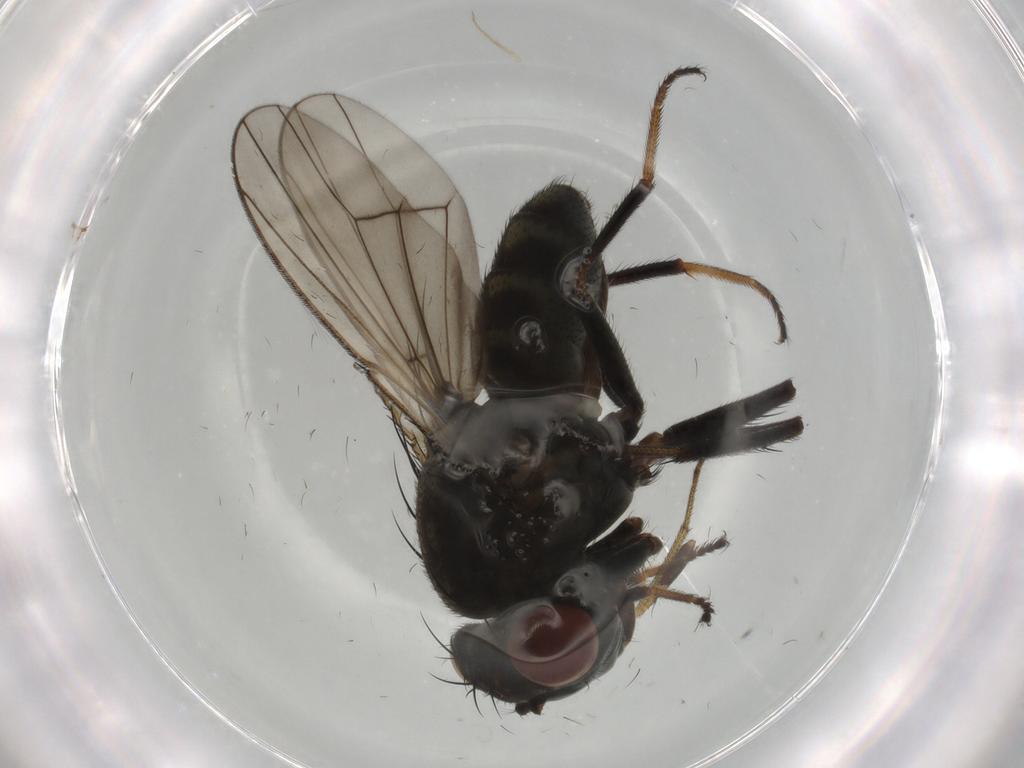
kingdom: Animalia
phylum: Arthropoda
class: Insecta
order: Diptera
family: Ephydridae
